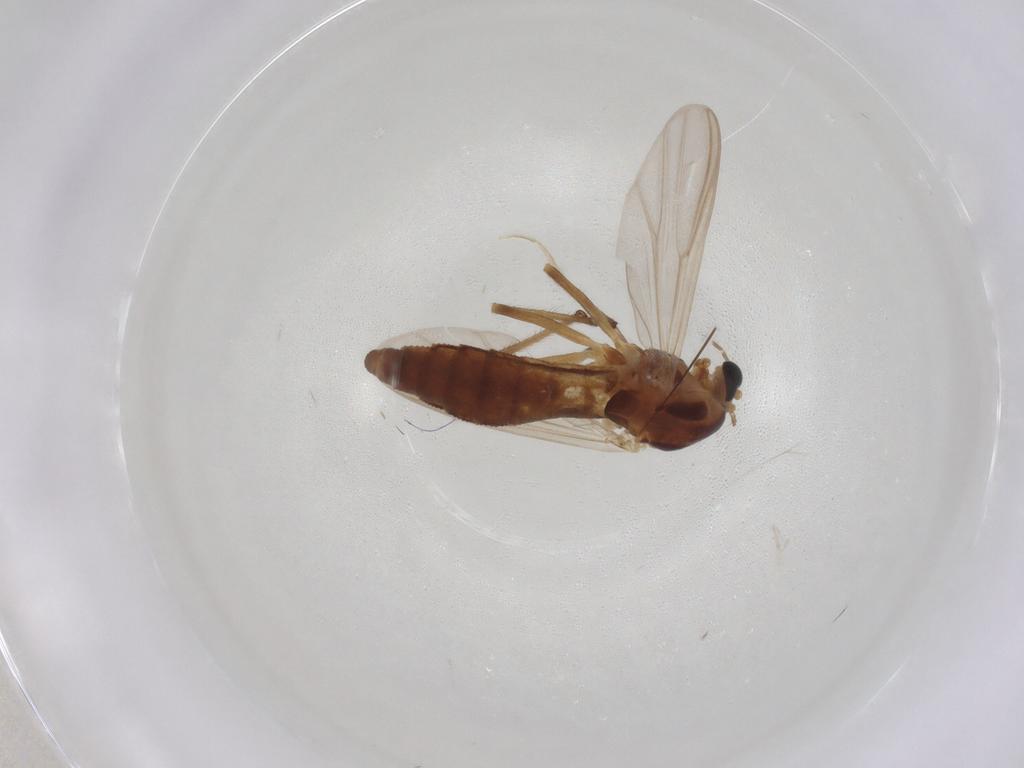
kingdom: Animalia
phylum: Arthropoda
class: Insecta
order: Diptera
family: Chironomidae
